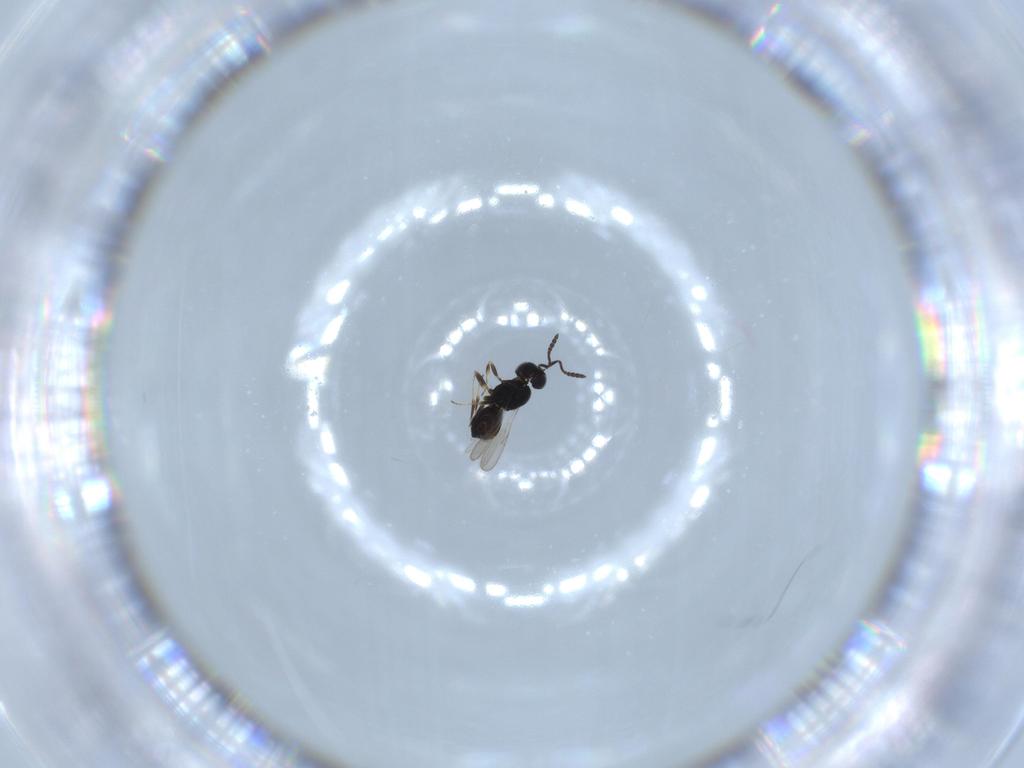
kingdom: Animalia
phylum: Arthropoda
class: Insecta
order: Hymenoptera
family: Scelionidae
